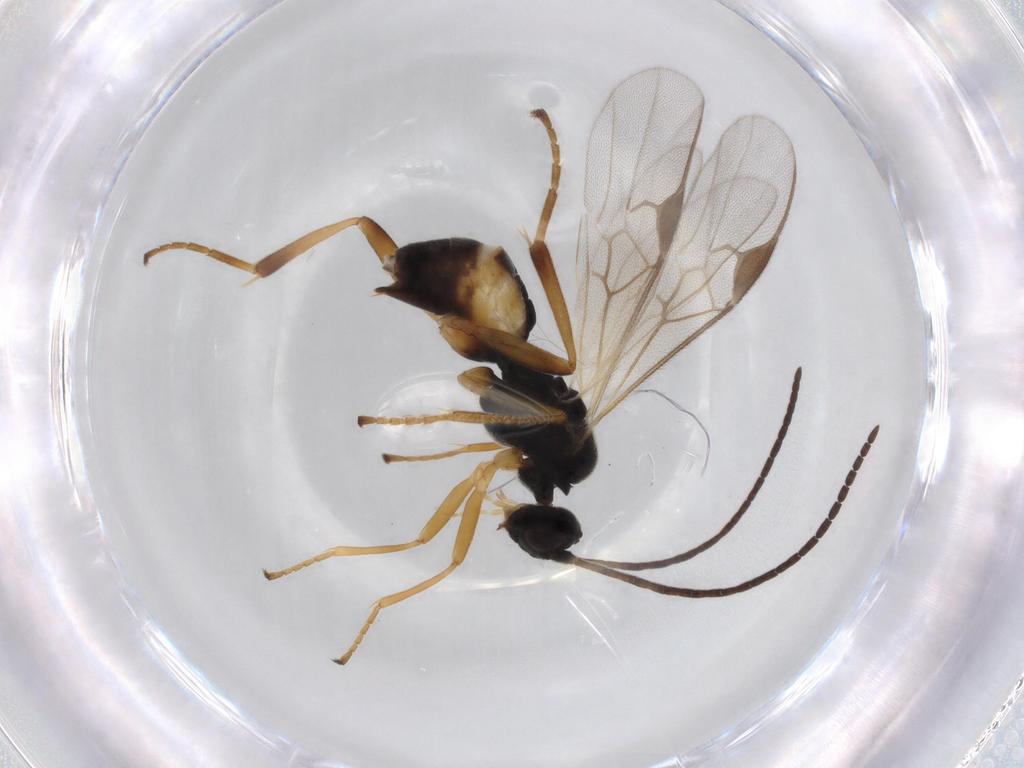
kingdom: Animalia
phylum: Arthropoda
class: Insecta
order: Hymenoptera
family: Braconidae
